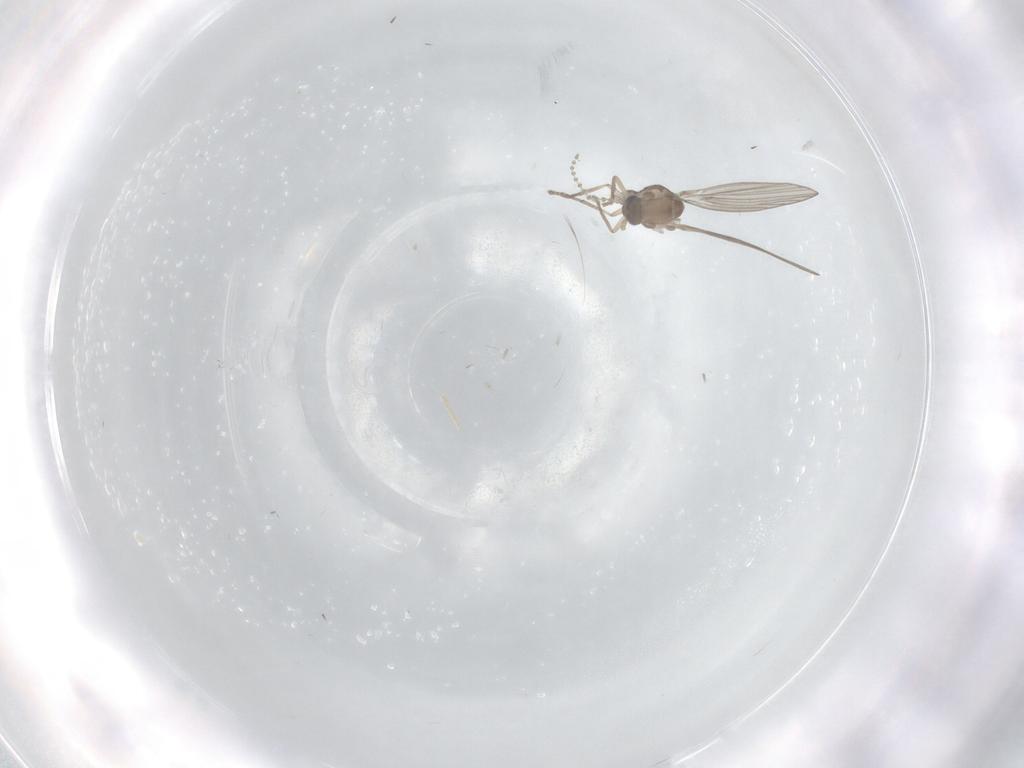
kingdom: Animalia
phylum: Arthropoda
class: Insecta
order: Diptera
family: Psychodidae
